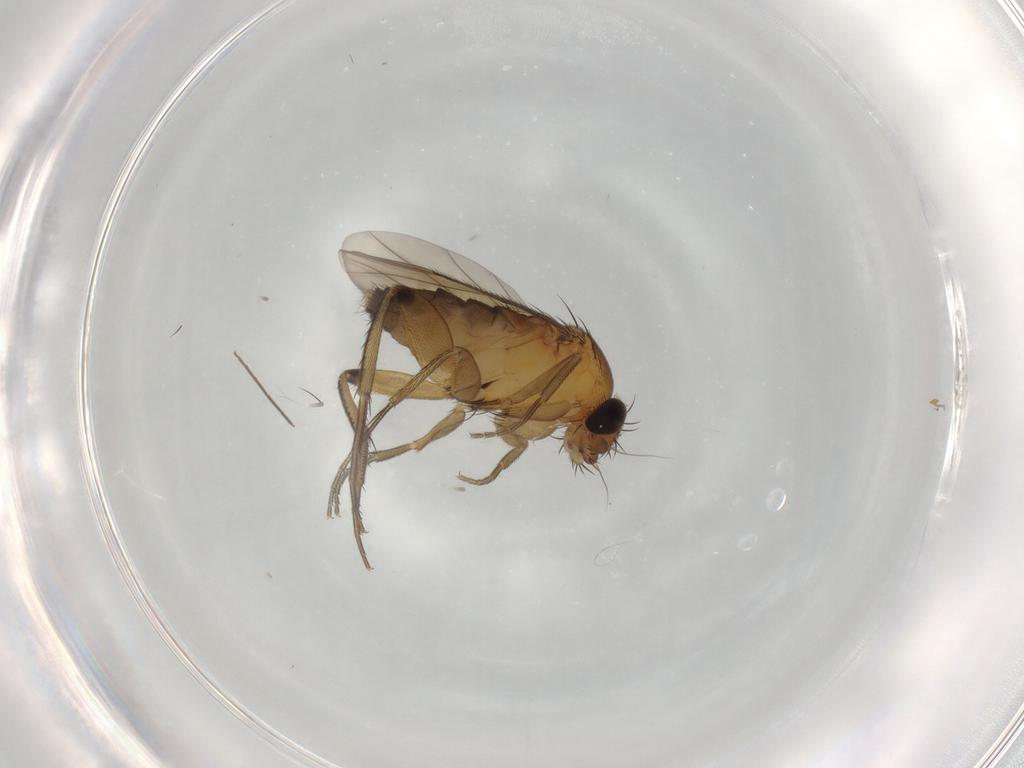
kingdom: Animalia
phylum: Arthropoda
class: Insecta
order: Diptera
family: Phoridae
